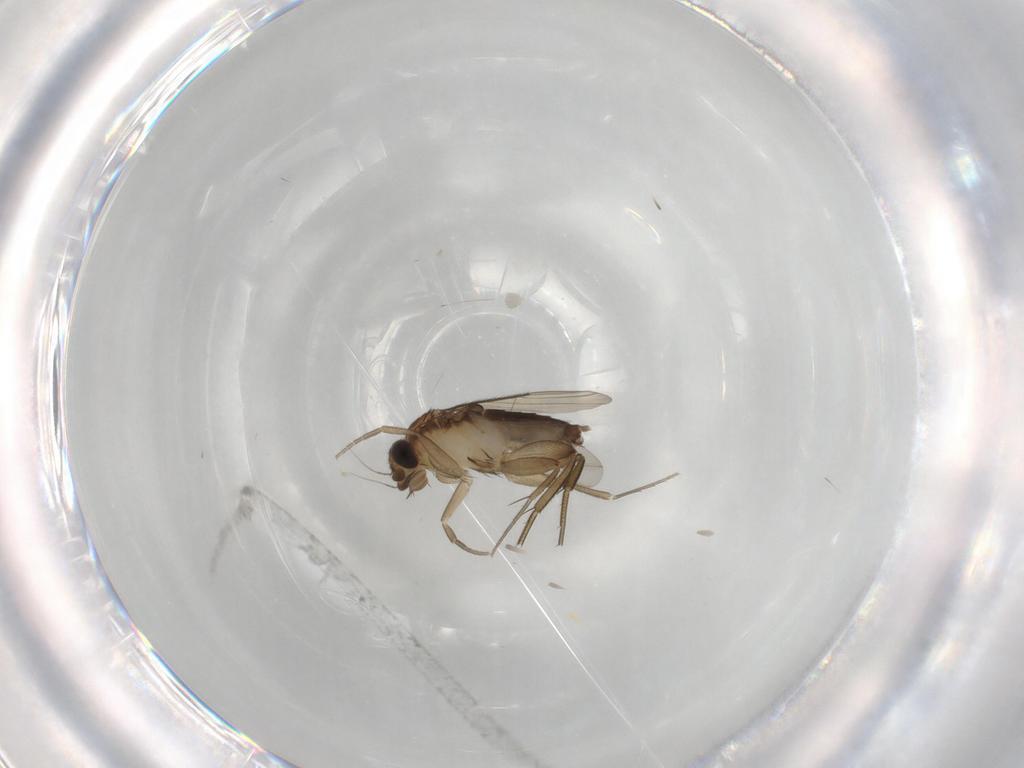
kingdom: Animalia
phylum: Arthropoda
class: Insecta
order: Diptera
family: Phoridae
